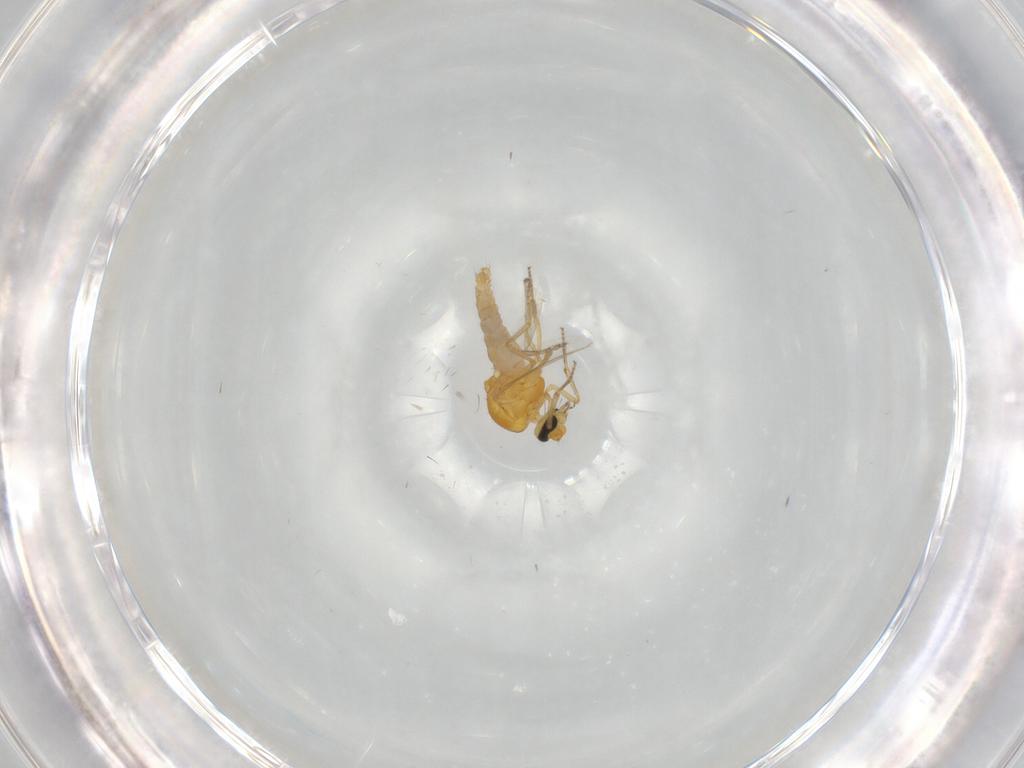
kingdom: Animalia
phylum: Arthropoda
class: Insecta
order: Diptera
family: Ceratopogonidae
